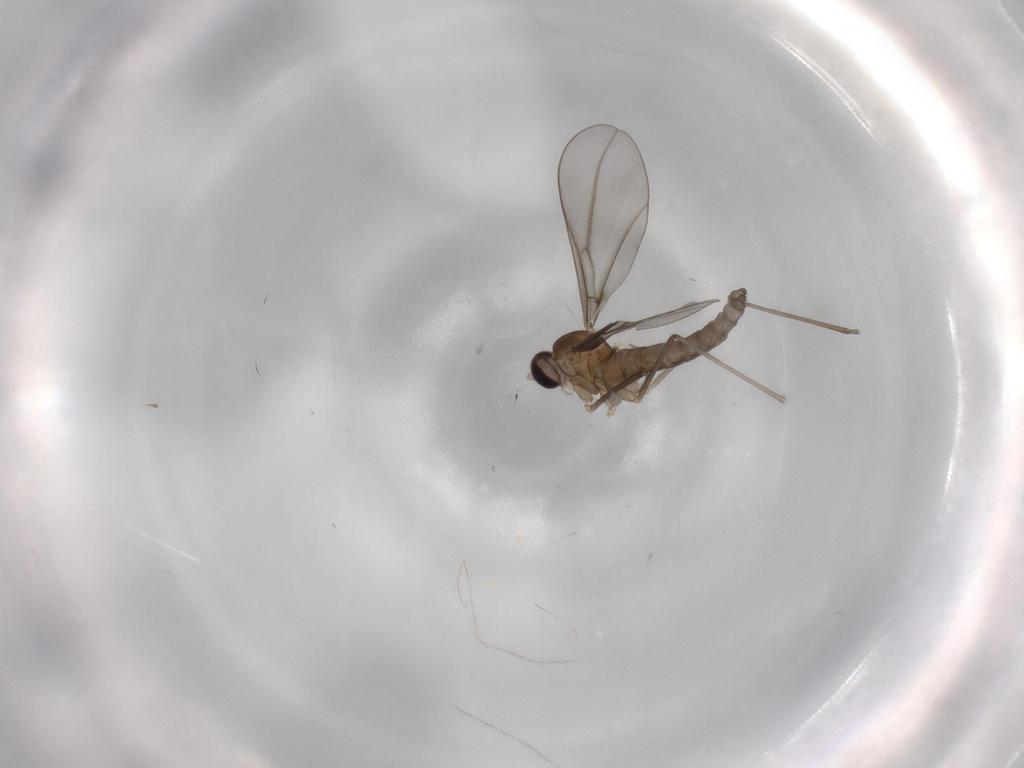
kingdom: Animalia
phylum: Arthropoda
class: Insecta
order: Diptera
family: Cecidomyiidae
